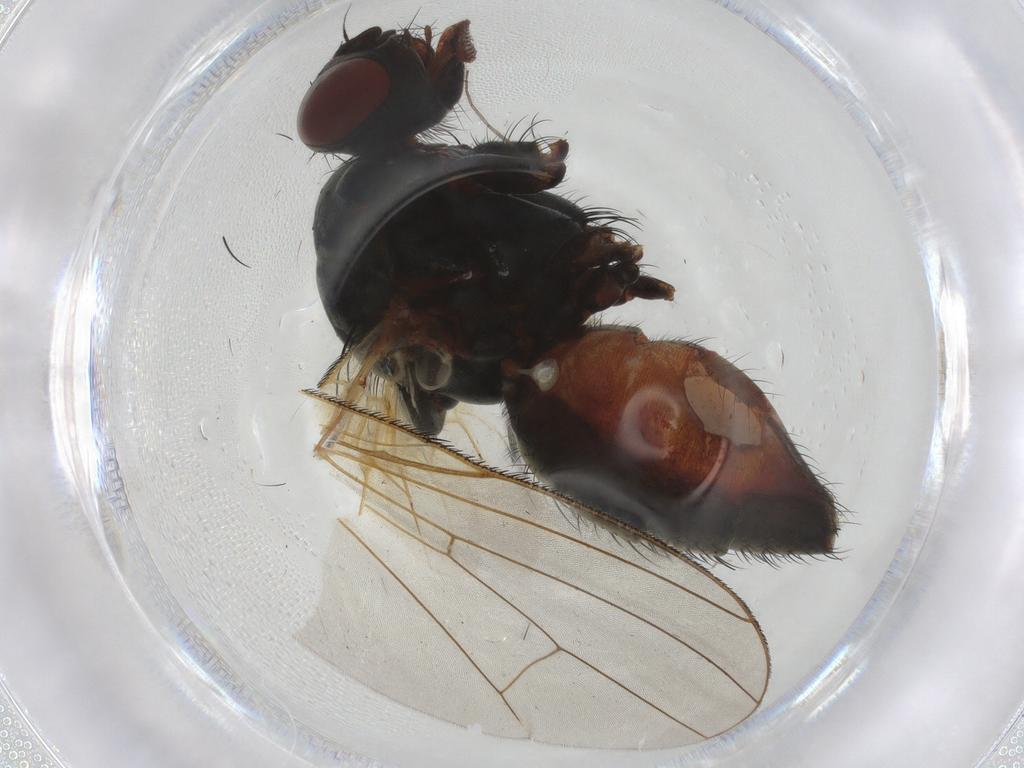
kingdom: Animalia
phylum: Arthropoda
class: Insecta
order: Diptera
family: Anthomyiidae
